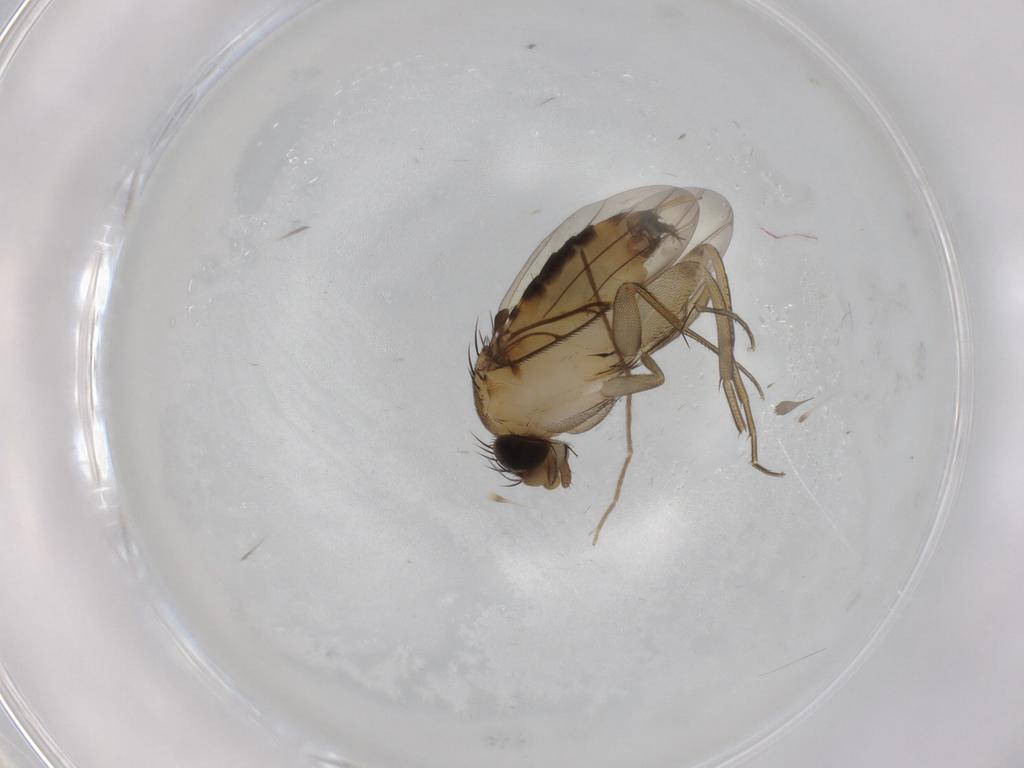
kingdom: Animalia
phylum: Arthropoda
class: Insecta
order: Diptera
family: Phoridae
